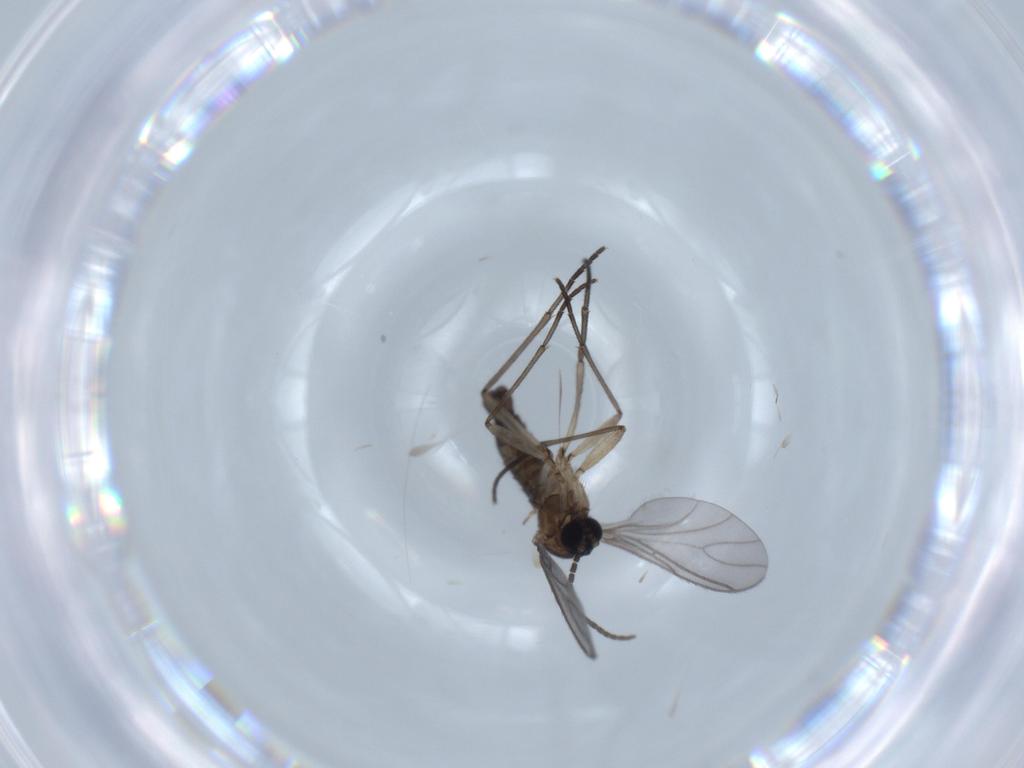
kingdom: Animalia
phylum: Arthropoda
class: Insecta
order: Diptera
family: Sciaridae
